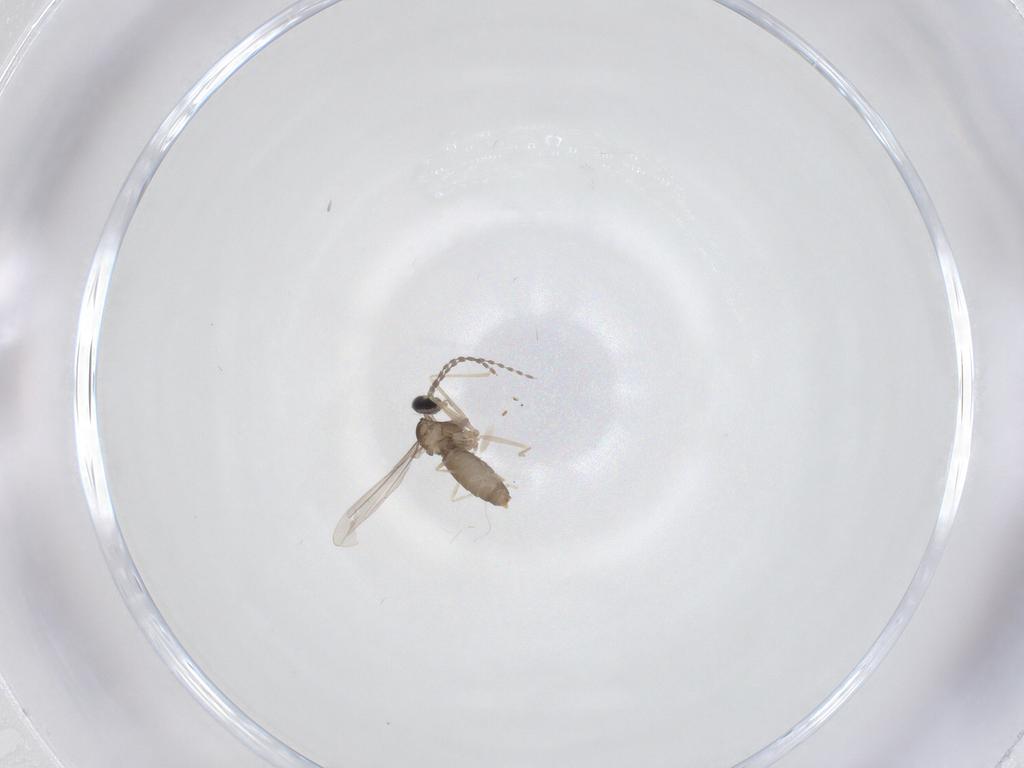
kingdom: Animalia
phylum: Arthropoda
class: Insecta
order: Diptera
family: Cecidomyiidae
